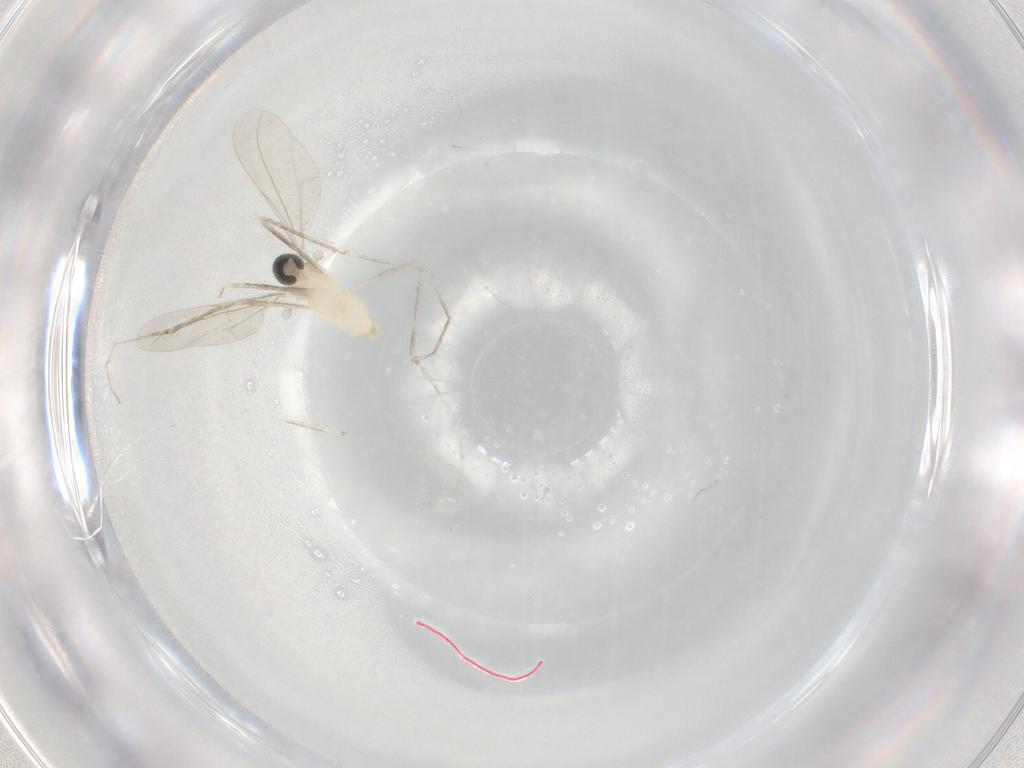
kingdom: Animalia
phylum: Arthropoda
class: Insecta
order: Diptera
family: Cecidomyiidae
